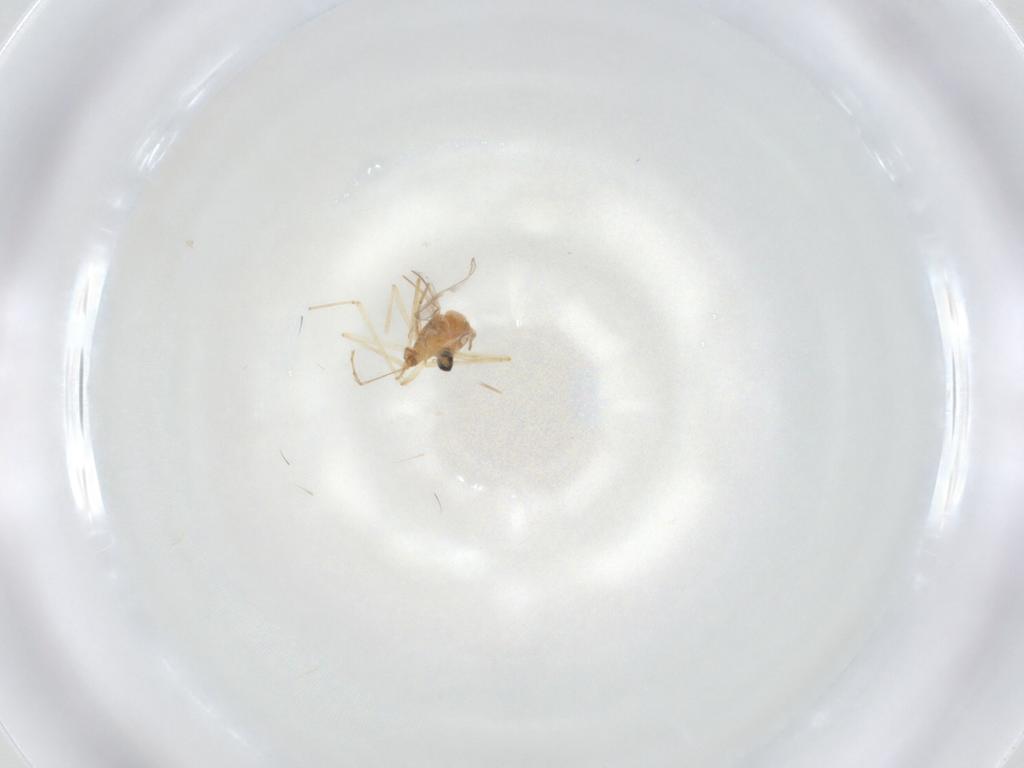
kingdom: Animalia
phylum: Arthropoda
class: Insecta
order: Diptera
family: Cecidomyiidae
